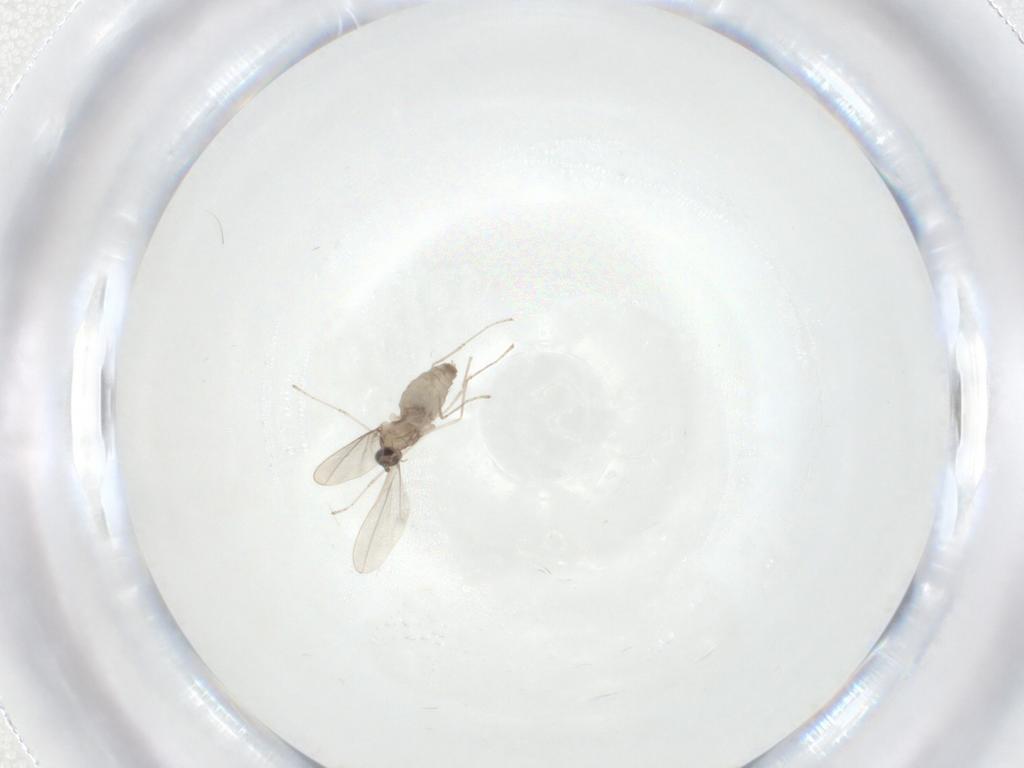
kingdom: Animalia
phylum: Arthropoda
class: Insecta
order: Diptera
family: Cecidomyiidae
